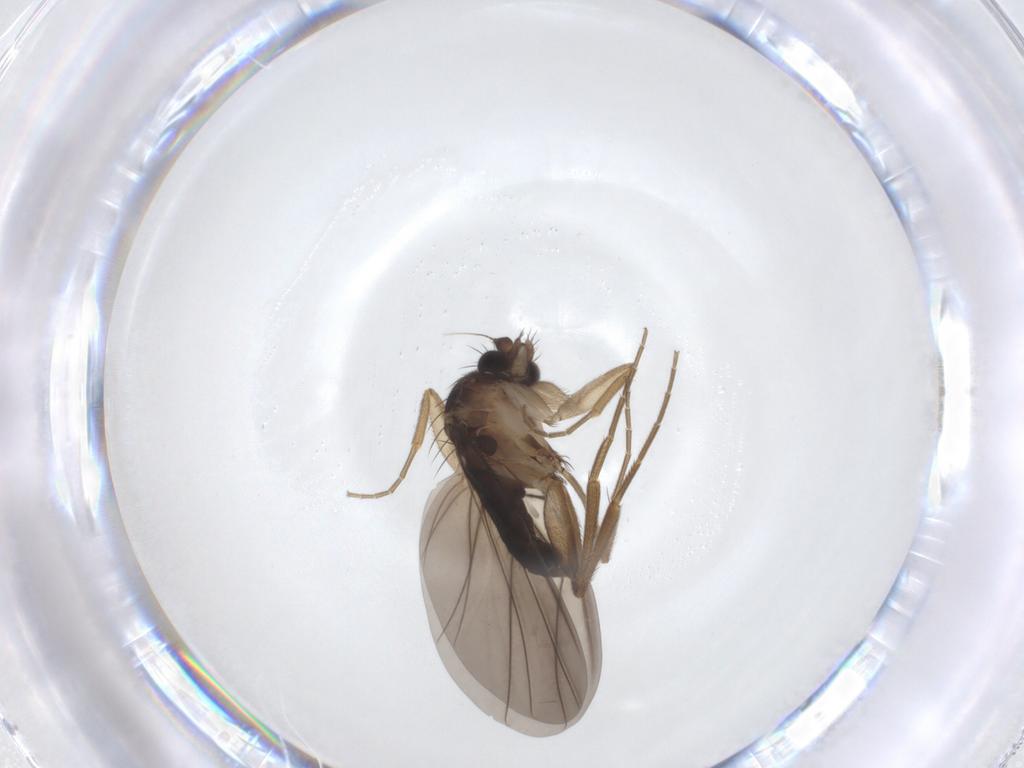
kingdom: Animalia
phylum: Arthropoda
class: Insecta
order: Diptera
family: Phoridae
